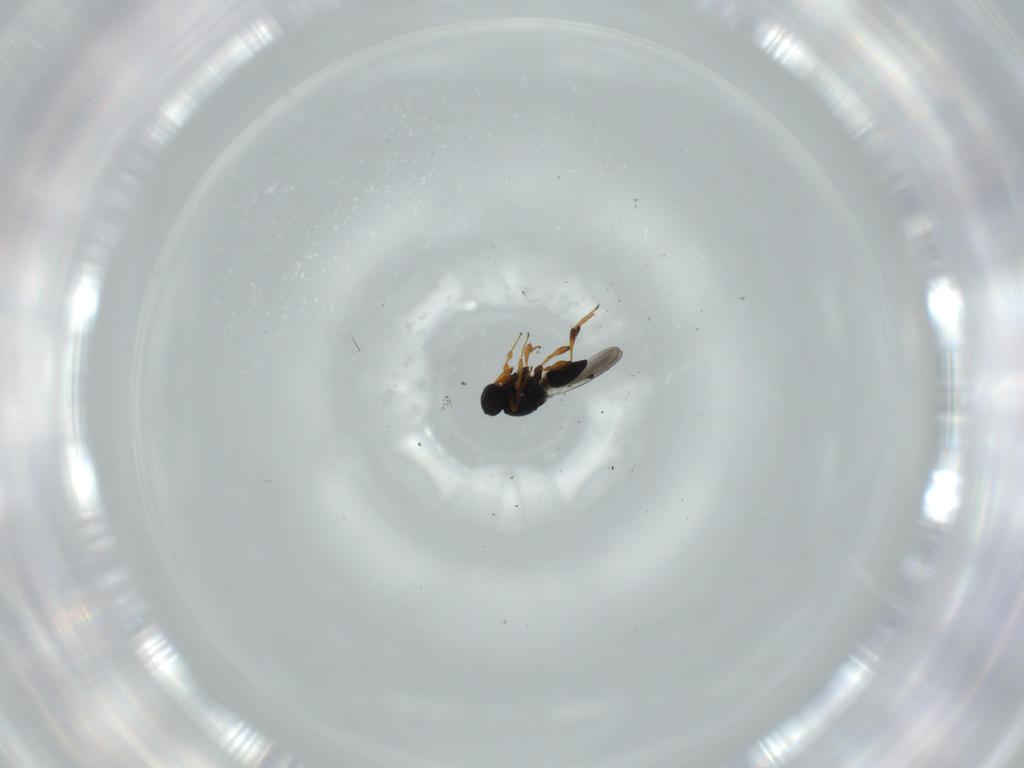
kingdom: Animalia
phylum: Arthropoda
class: Insecta
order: Hymenoptera
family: Platygastridae
